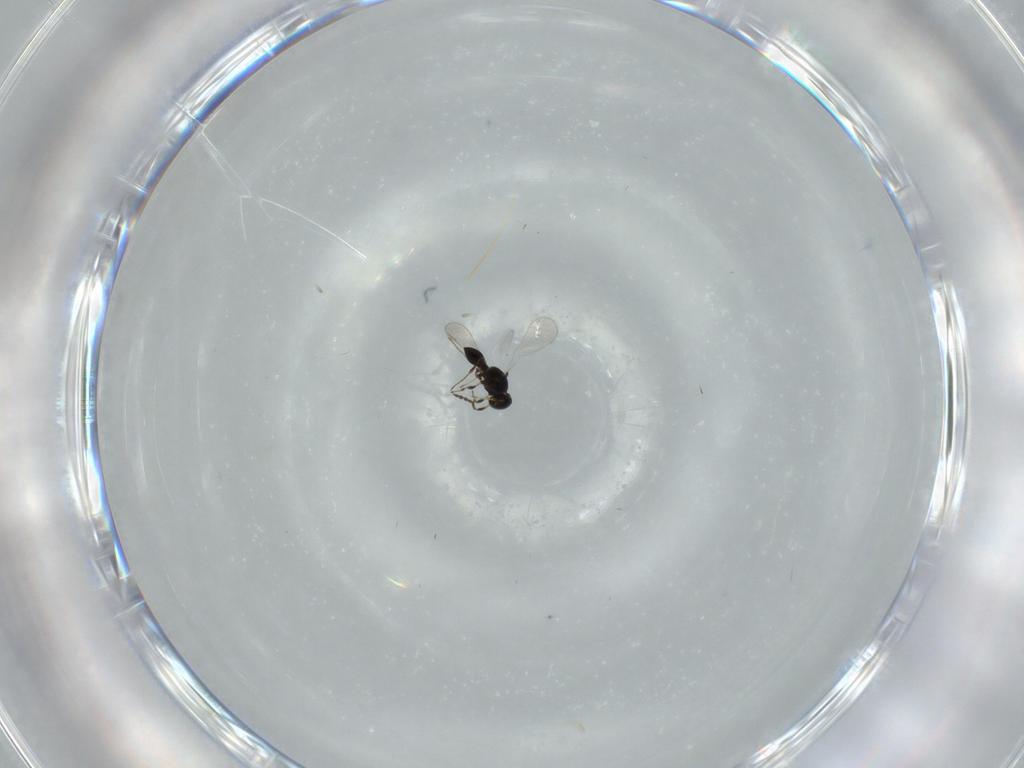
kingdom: Animalia
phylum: Arthropoda
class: Insecta
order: Hymenoptera
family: Platygastridae
